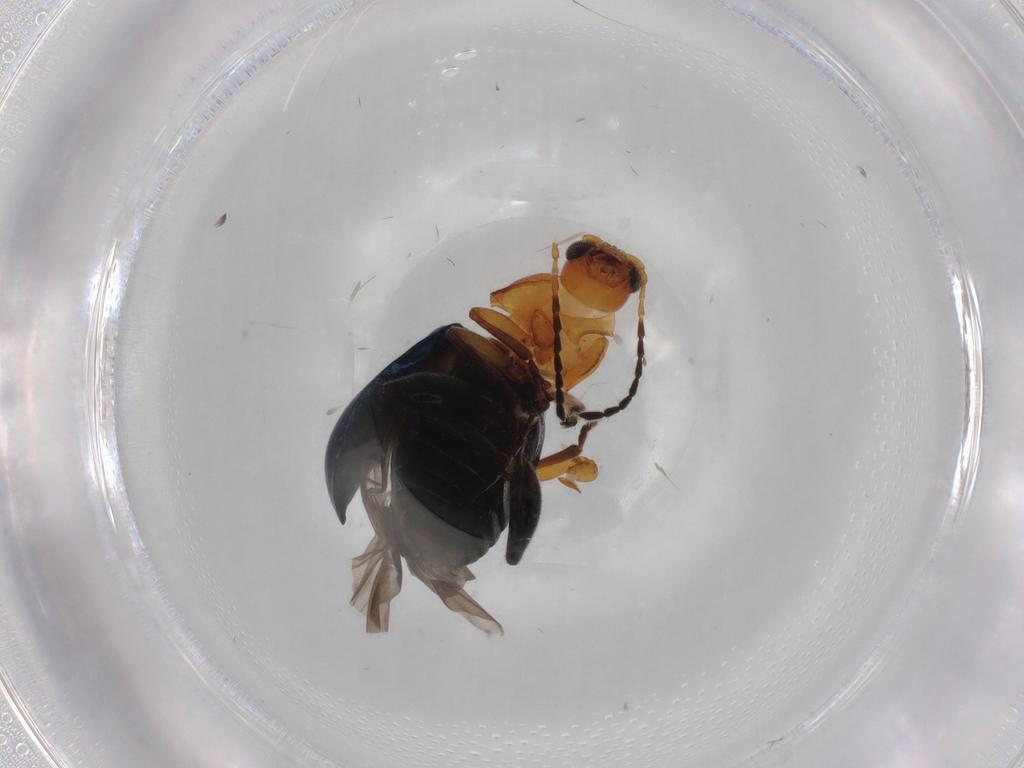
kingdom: Animalia
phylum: Arthropoda
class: Insecta
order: Coleoptera
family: Chrysomelidae
